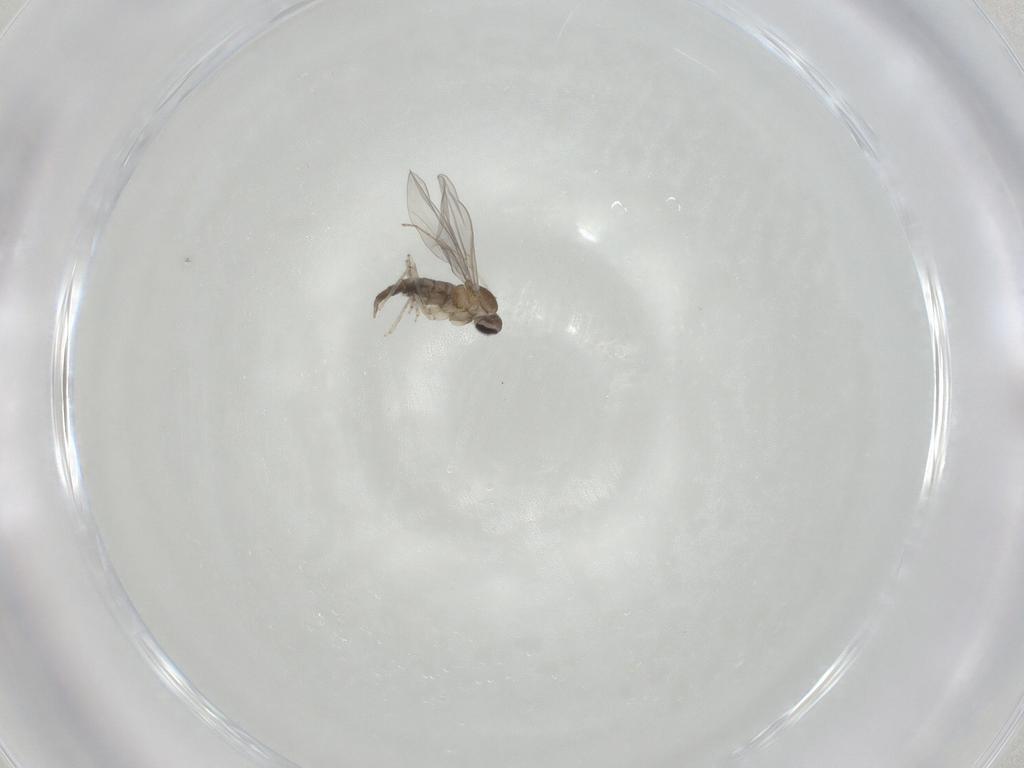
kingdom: Animalia
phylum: Arthropoda
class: Insecta
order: Diptera
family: Cecidomyiidae
